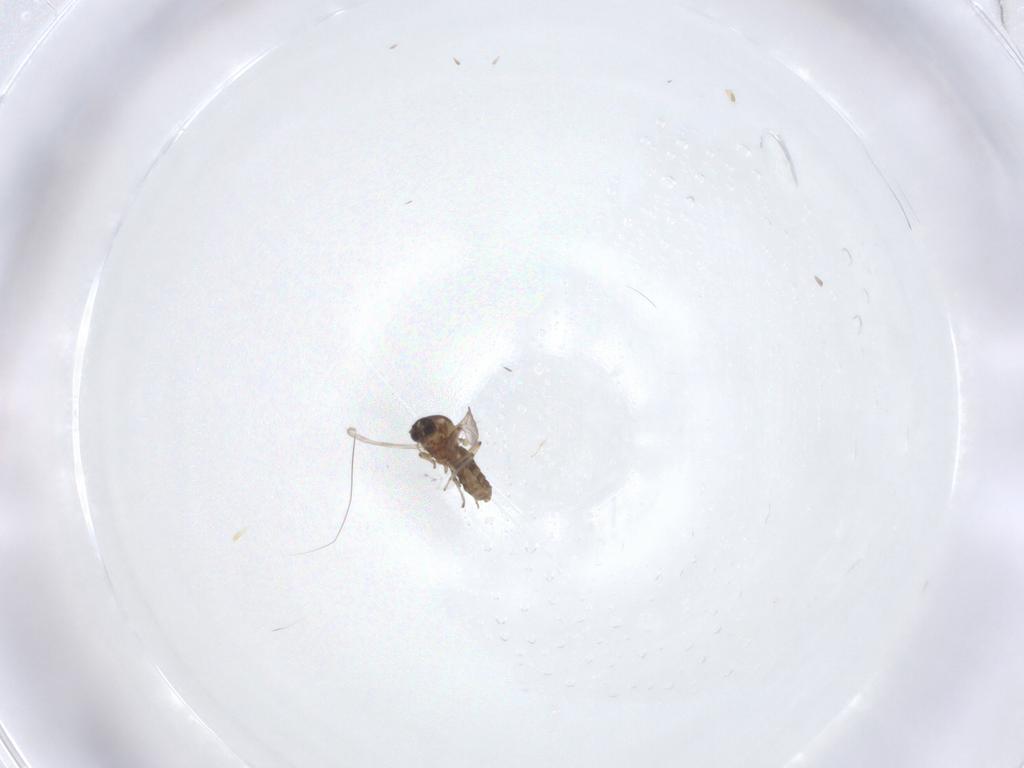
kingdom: Animalia
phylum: Arthropoda
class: Insecta
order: Diptera
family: Ceratopogonidae
